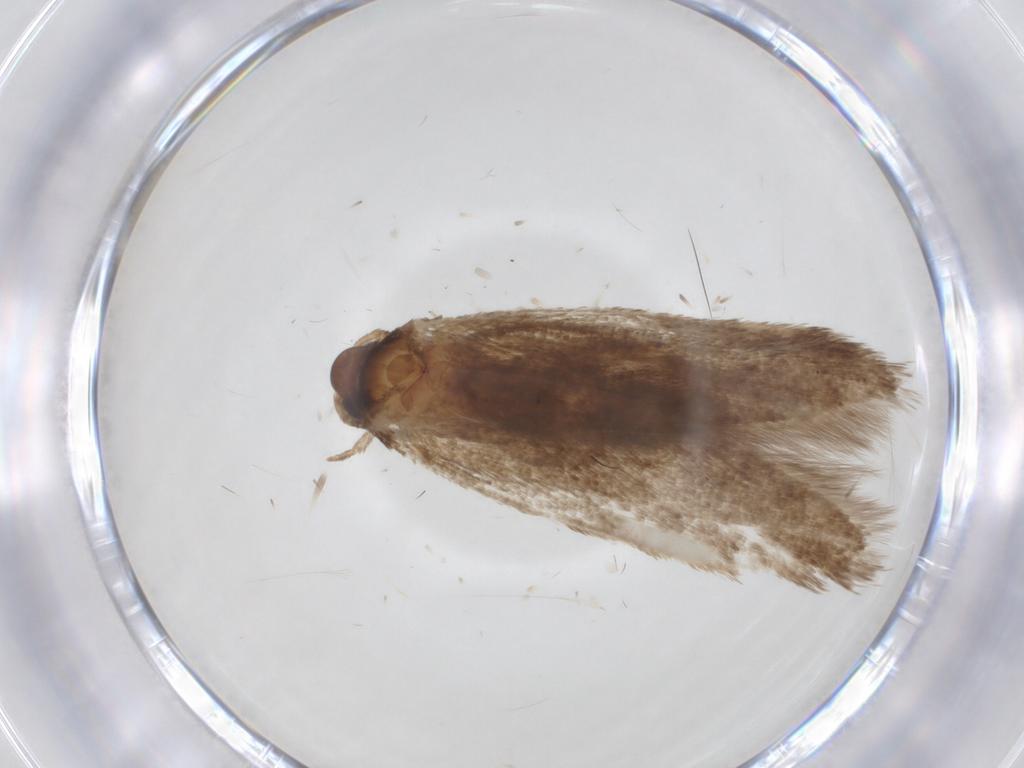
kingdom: Animalia
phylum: Arthropoda
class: Insecta
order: Lepidoptera
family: Blastobasidae
